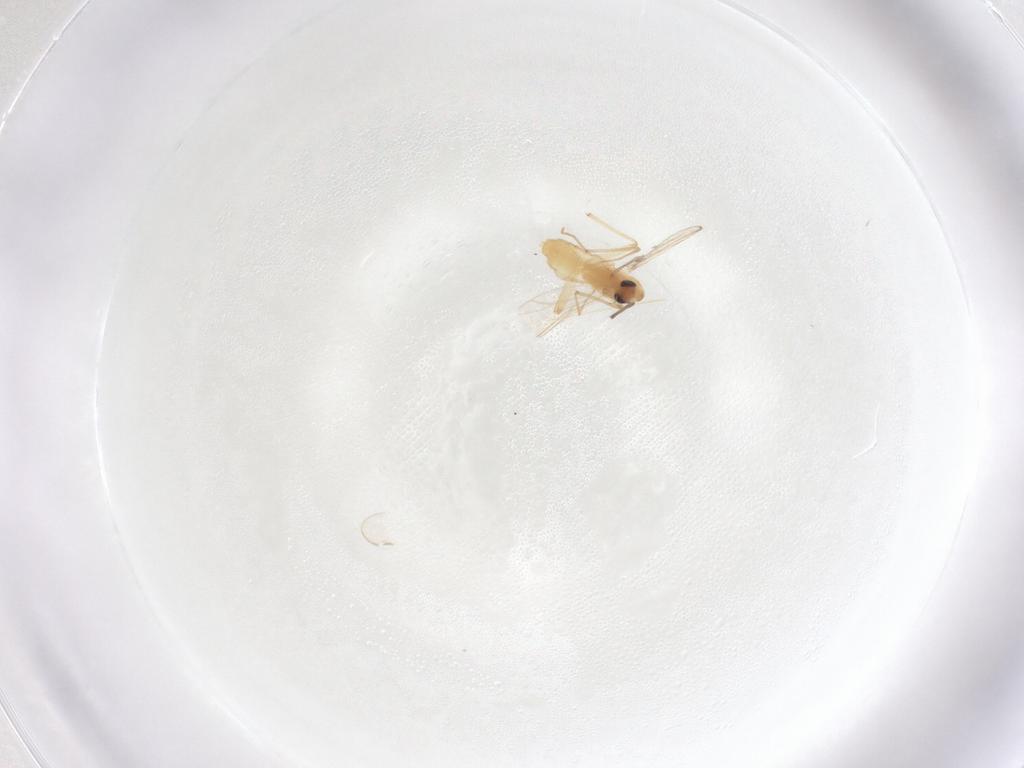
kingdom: Animalia
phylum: Arthropoda
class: Insecta
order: Diptera
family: Chironomidae
